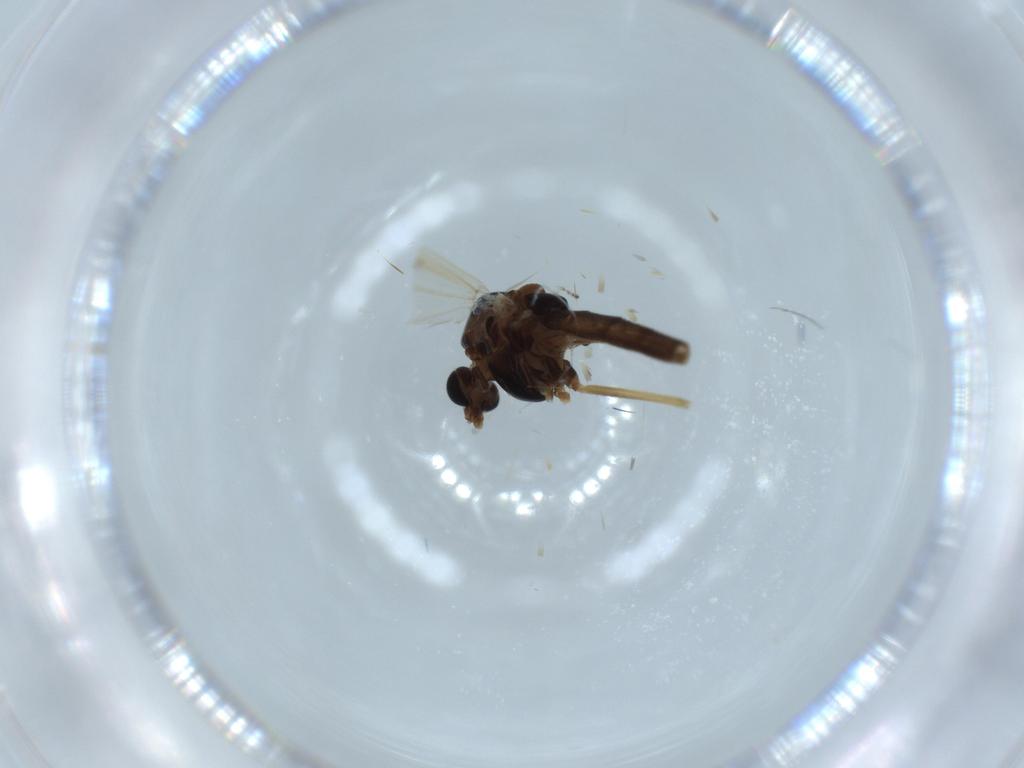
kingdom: Animalia
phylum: Arthropoda
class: Insecta
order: Diptera
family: Chironomidae
